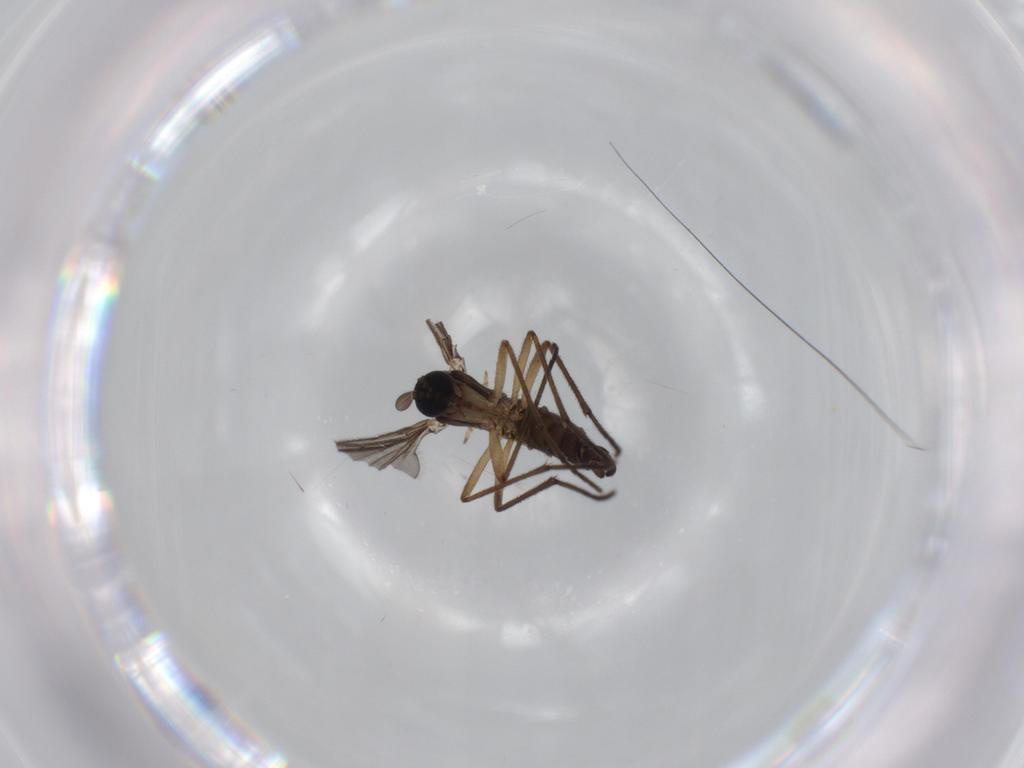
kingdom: Animalia
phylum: Arthropoda
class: Insecta
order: Diptera
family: Sciaridae
